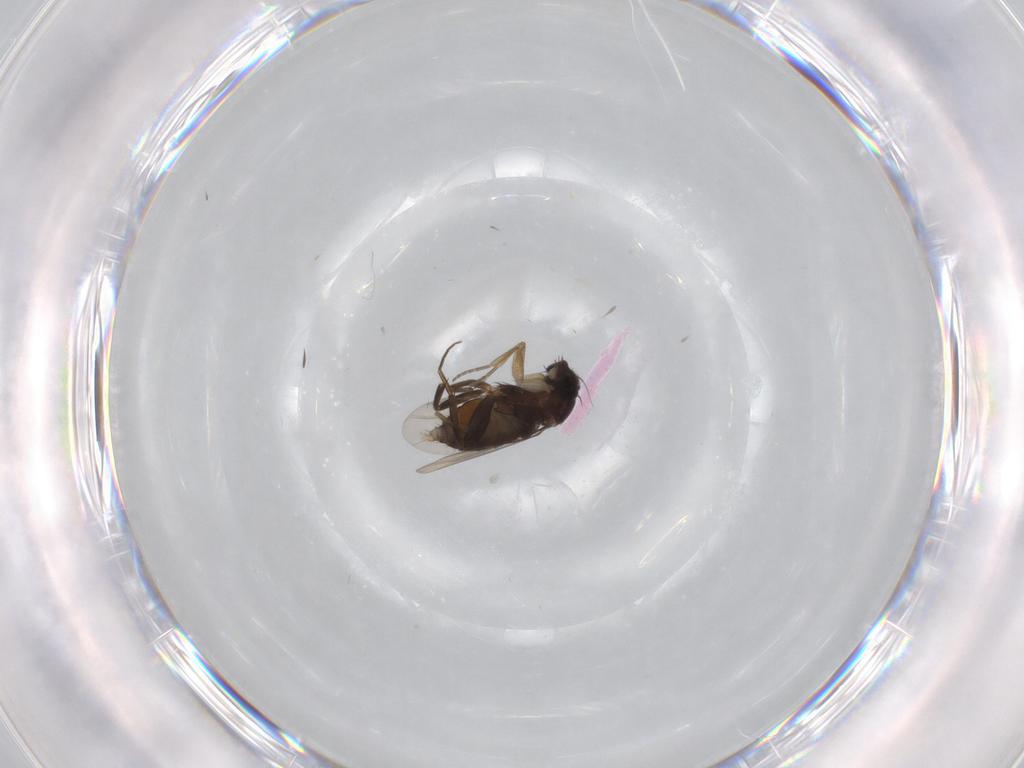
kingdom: Animalia
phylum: Arthropoda
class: Insecta
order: Diptera
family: Phoridae
